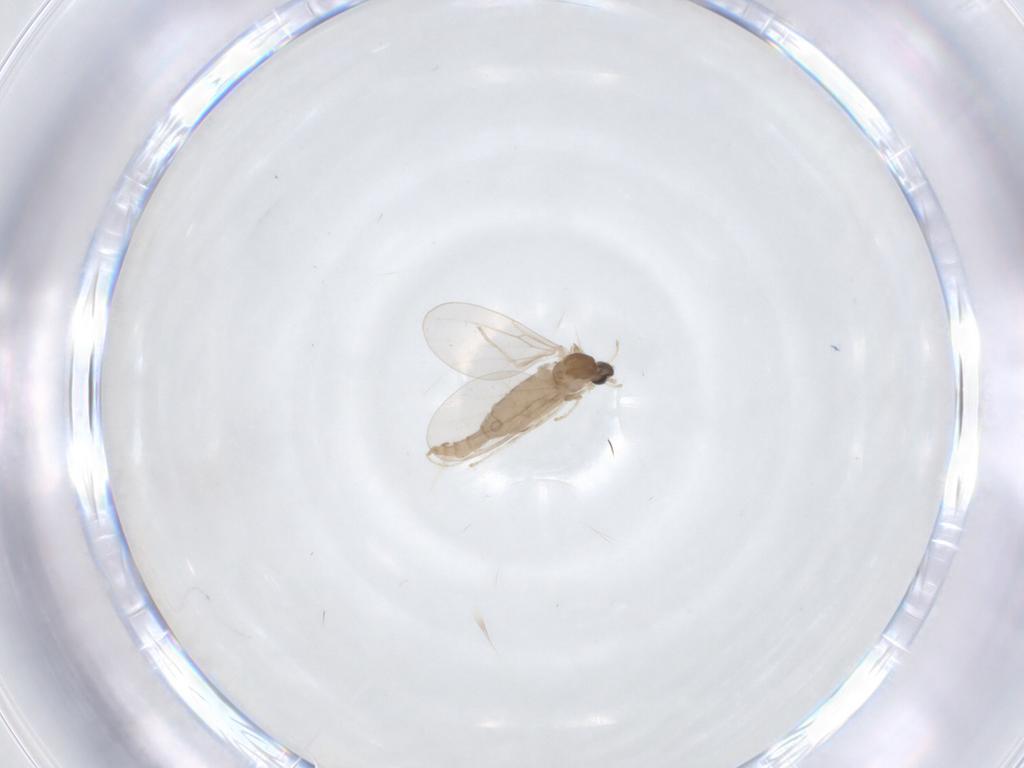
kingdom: Animalia
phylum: Arthropoda
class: Insecta
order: Diptera
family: Cecidomyiidae
